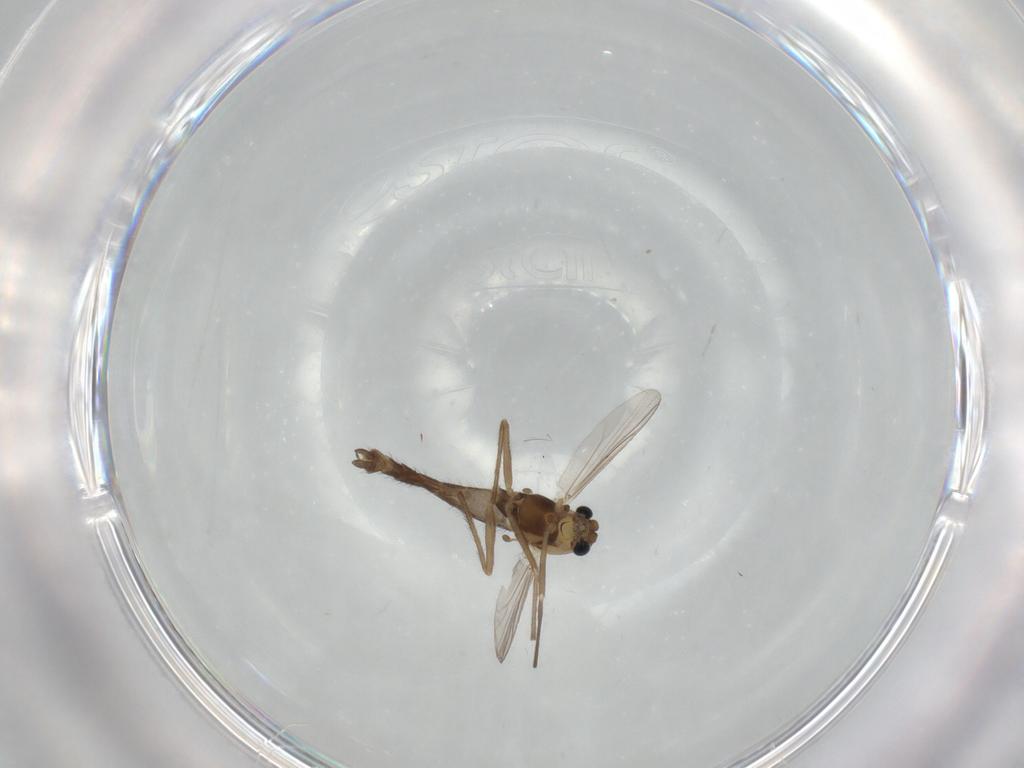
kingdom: Animalia
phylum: Arthropoda
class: Insecta
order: Diptera
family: Chironomidae
